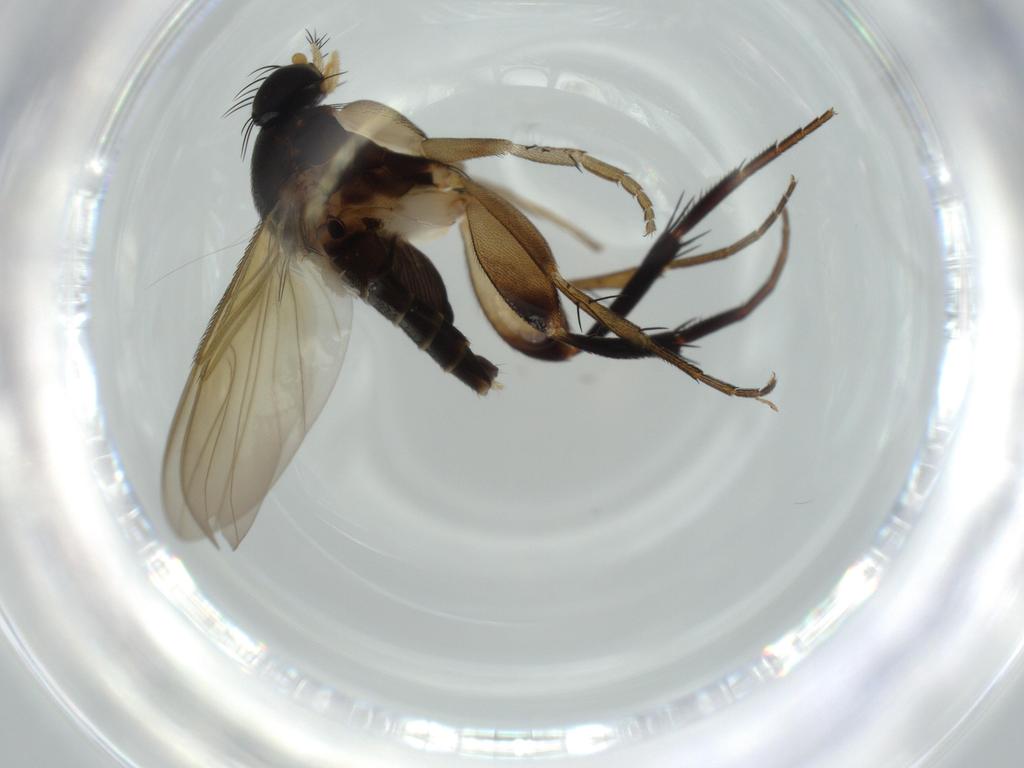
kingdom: Animalia
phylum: Arthropoda
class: Insecta
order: Diptera
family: Phoridae
